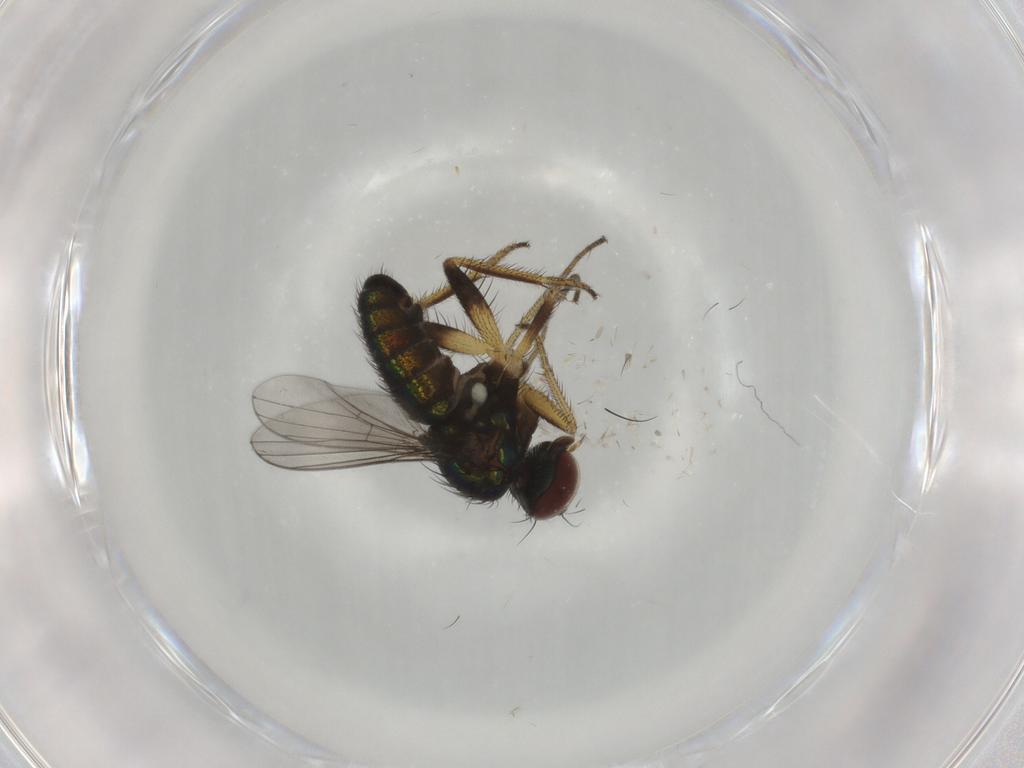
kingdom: Animalia
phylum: Arthropoda
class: Insecta
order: Diptera
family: Dolichopodidae
